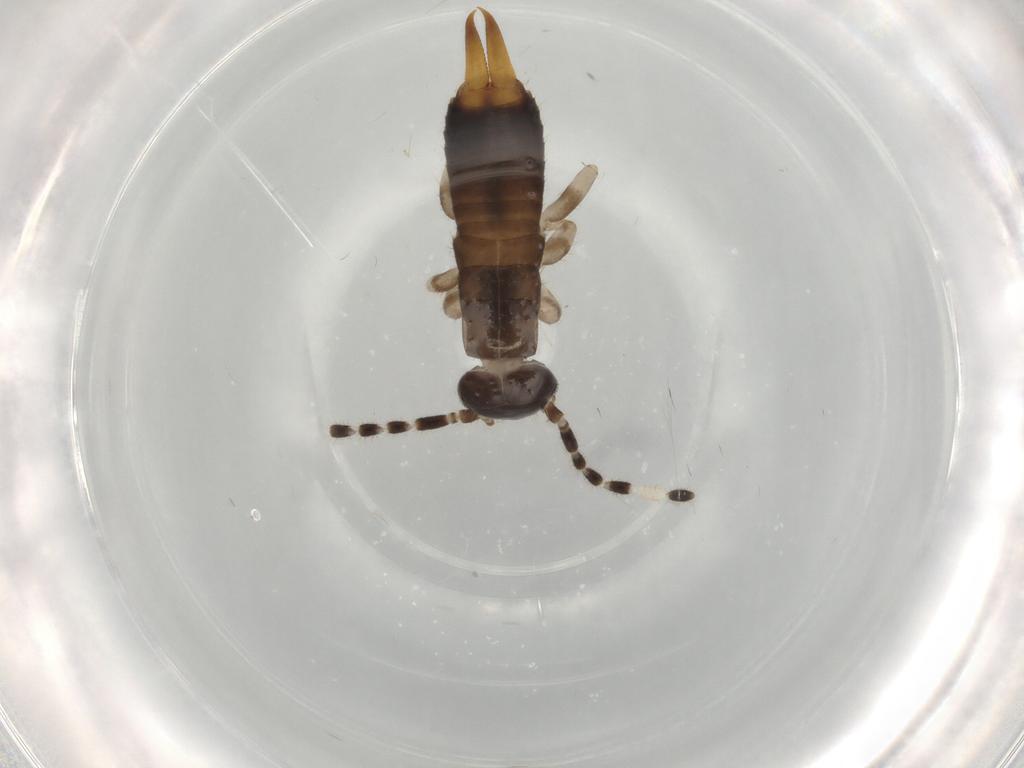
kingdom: Animalia
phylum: Arthropoda
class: Insecta
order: Dermaptera
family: Anisolabididae
